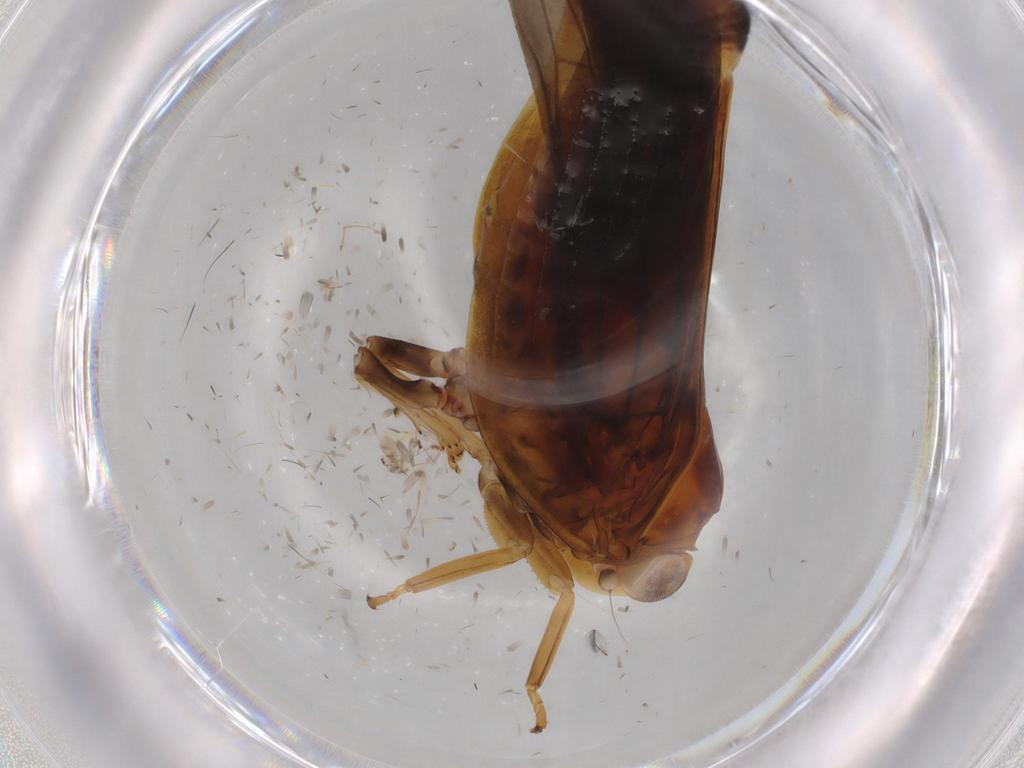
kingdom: Animalia
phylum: Arthropoda
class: Insecta
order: Hemiptera
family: Nogodinidae
